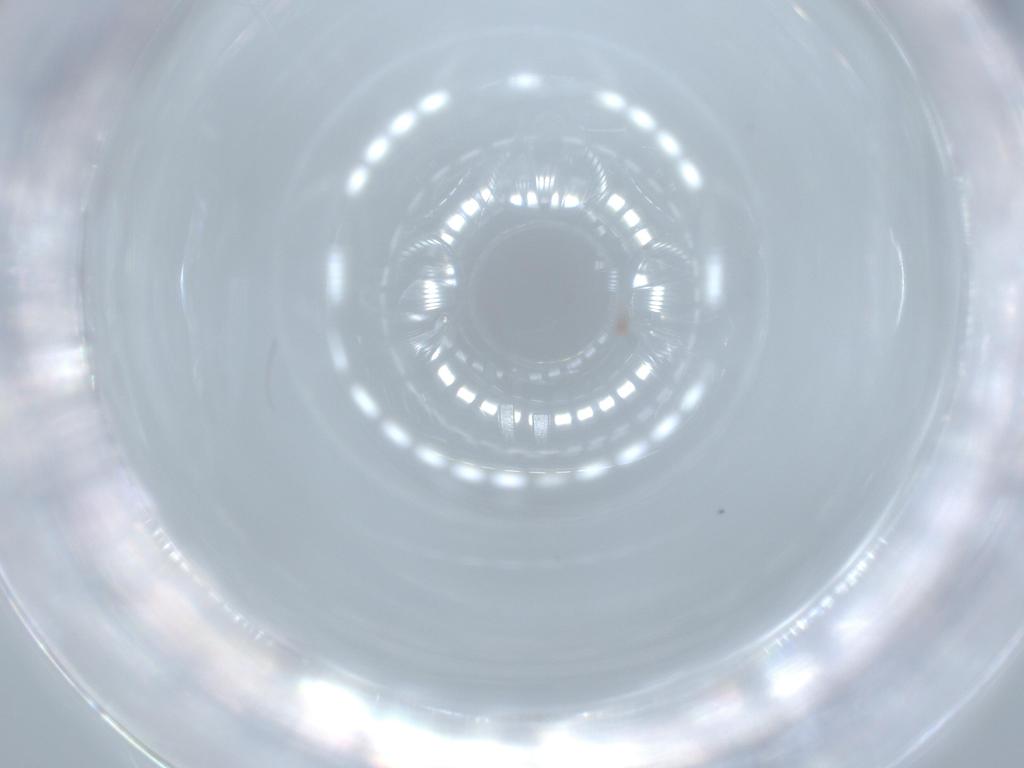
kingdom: Animalia
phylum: Arthropoda
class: Insecta
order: Diptera
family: Cecidomyiidae
